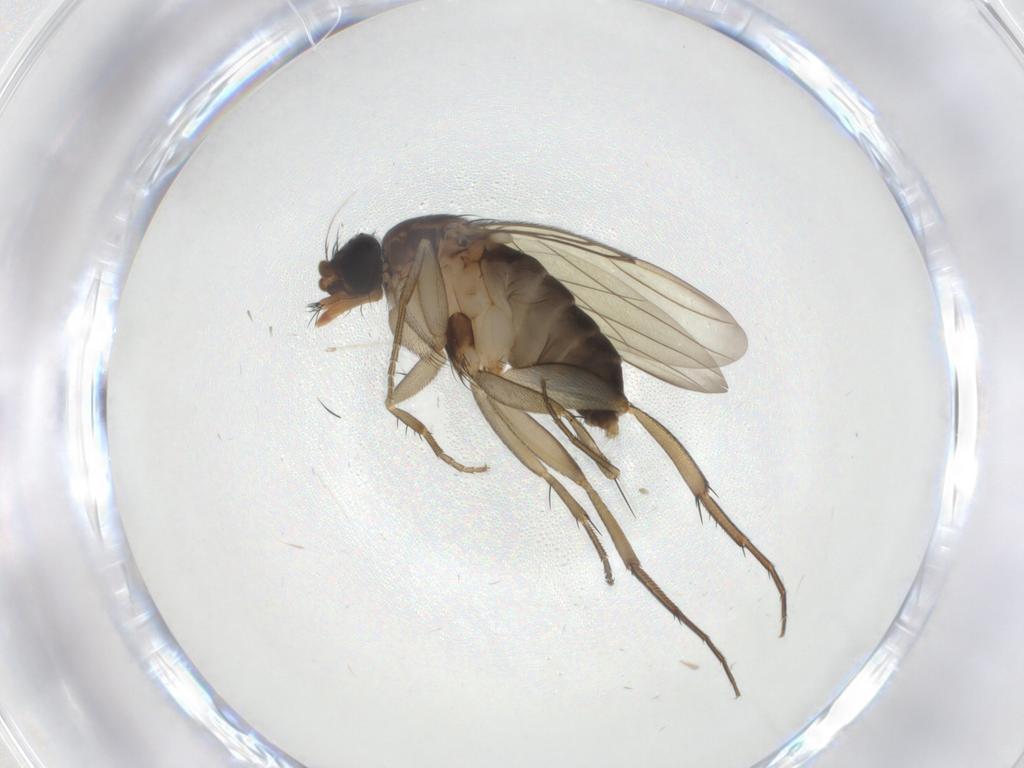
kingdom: Animalia
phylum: Arthropoda
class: Insecta
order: Diptera
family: Phoridae
